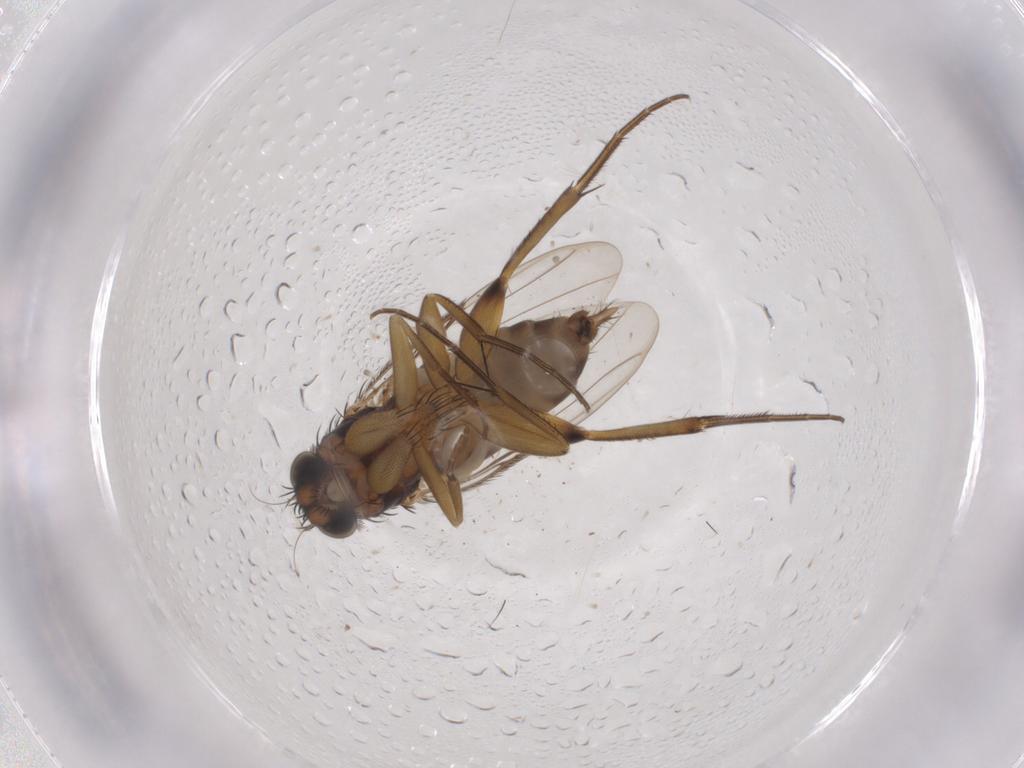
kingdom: Animalia
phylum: Arthropoda
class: Insecta
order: Diptera
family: Phoridae
